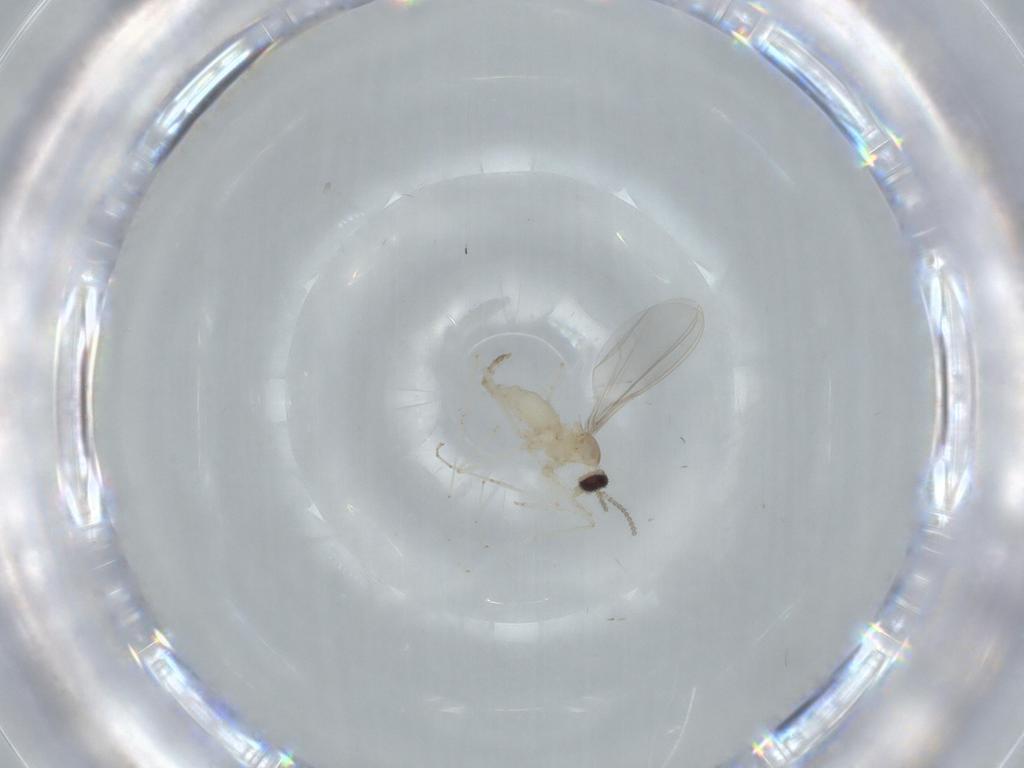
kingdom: Animalia
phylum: Arthropoda
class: Insecta
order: Diptera
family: Cecidomyiidae
